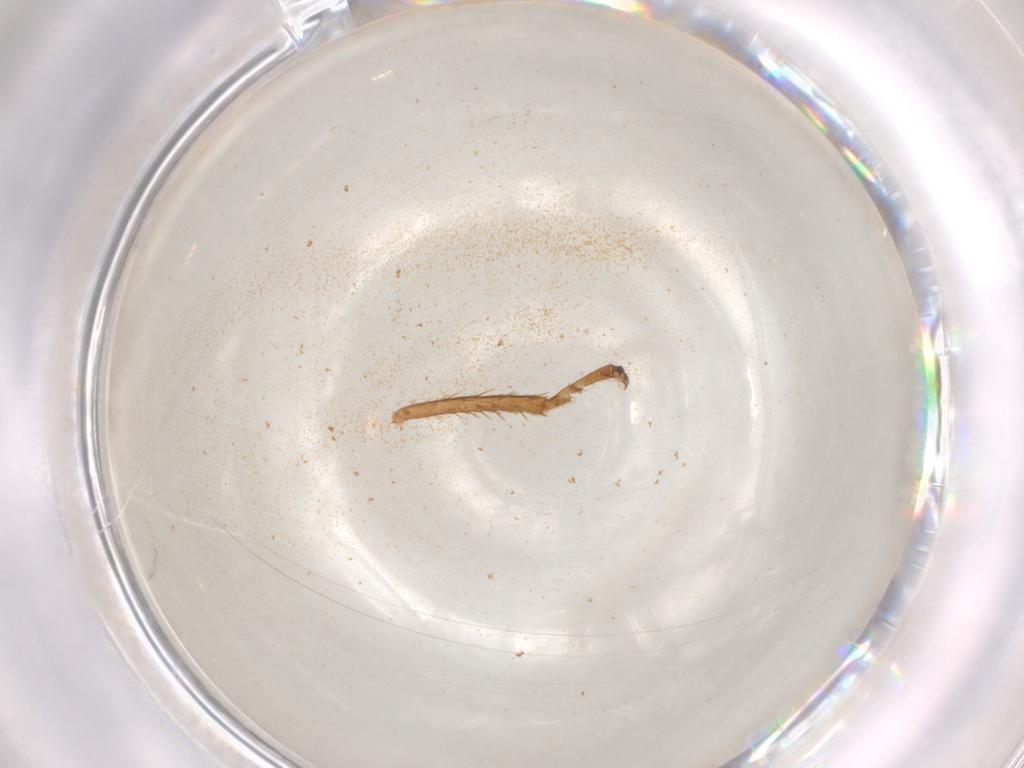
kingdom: Animalia
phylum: Arthropoda
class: Insecta
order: Hemiptera
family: Cicadellidae
